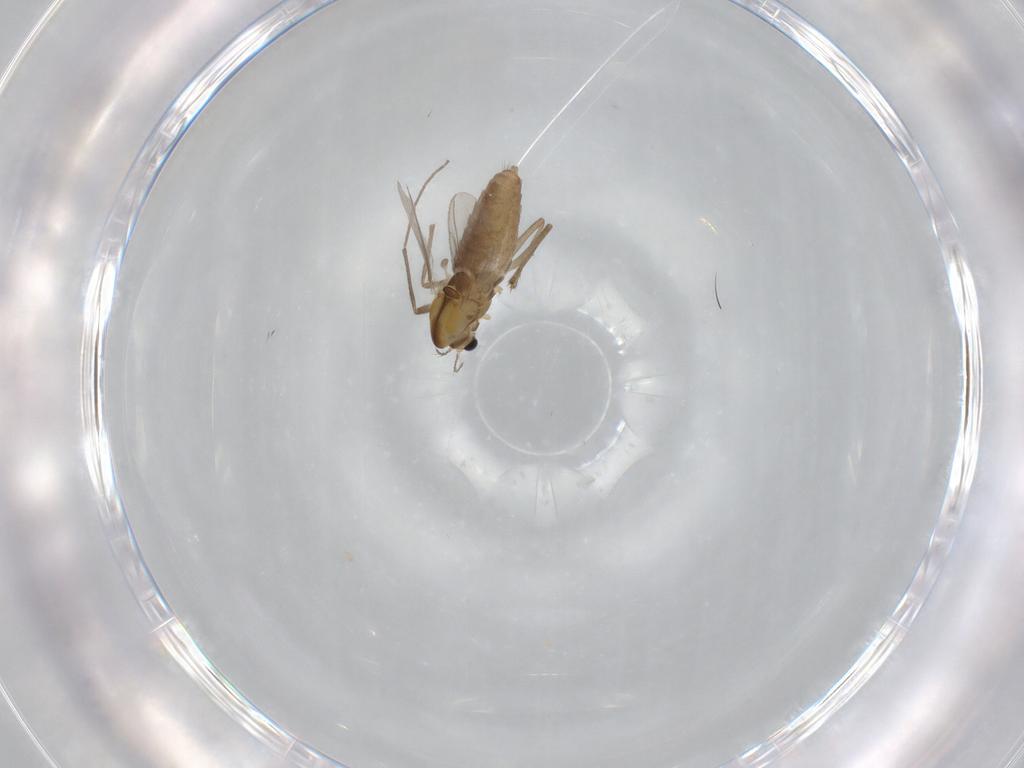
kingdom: Animalia
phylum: Arthropoda
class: Insecta
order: Diptera
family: Chironomidae
